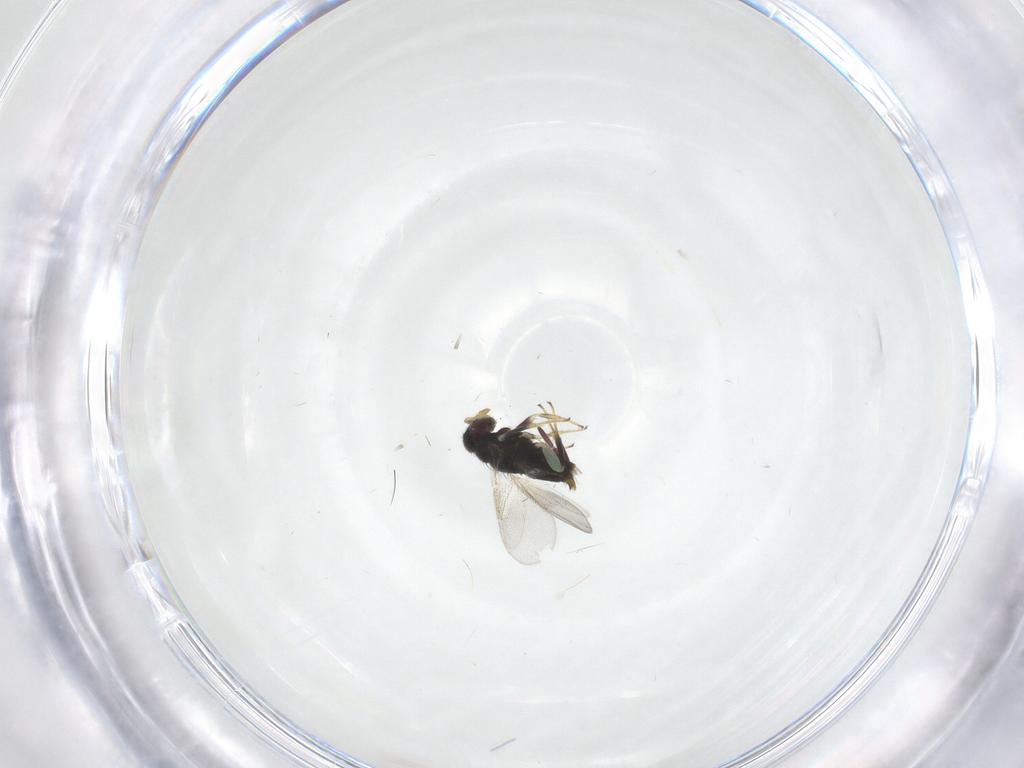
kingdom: Animalia
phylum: Arthropoda
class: Insecta
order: Hymenoptera
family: Aphelinidae
